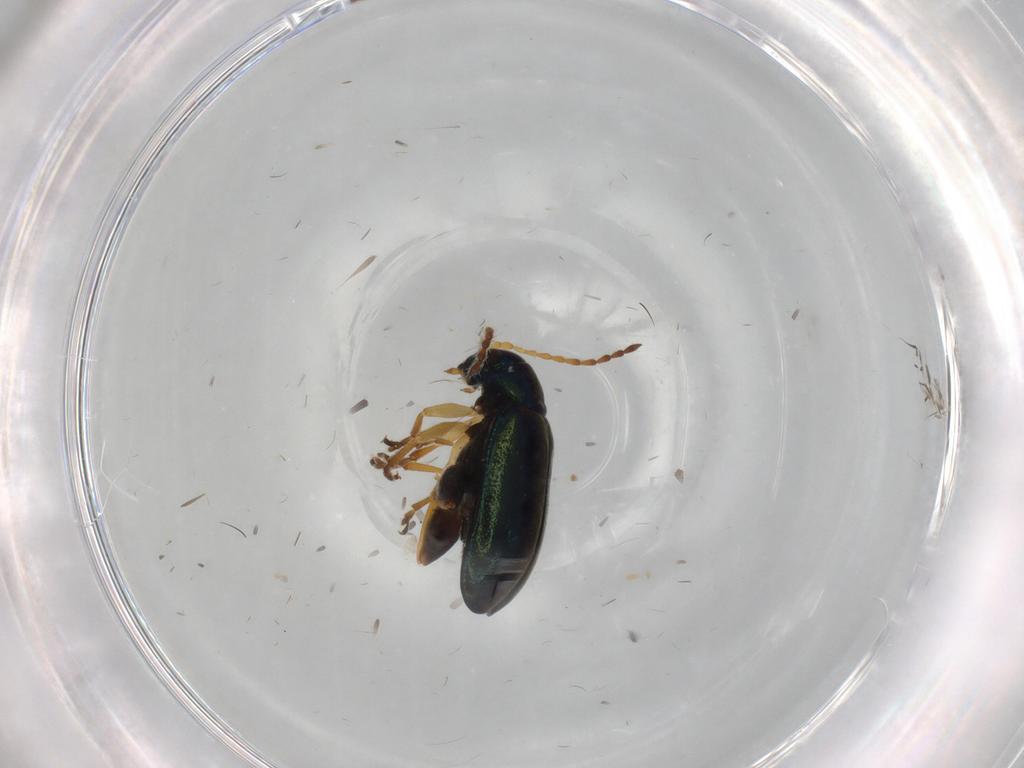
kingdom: Animalia
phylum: Arthropoda
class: Insecta
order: Coleoptera
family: Chrysomelidae
